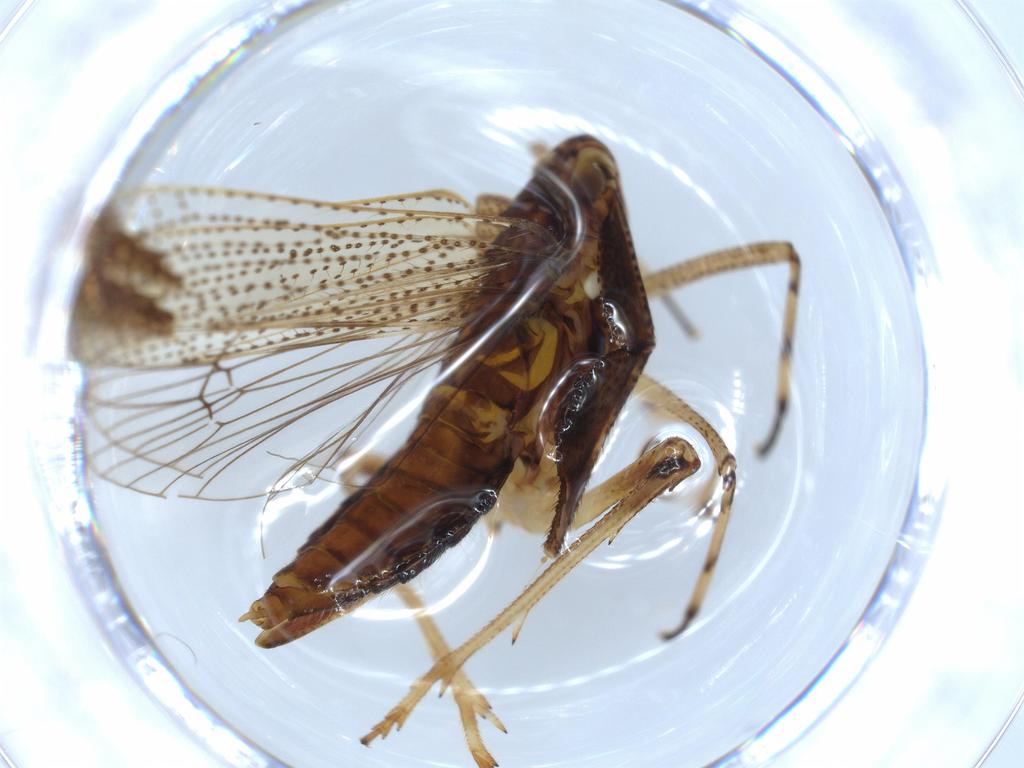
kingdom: Animalia
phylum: Arthropoda
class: Insecta
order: Hemiptera
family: Delphacidae
